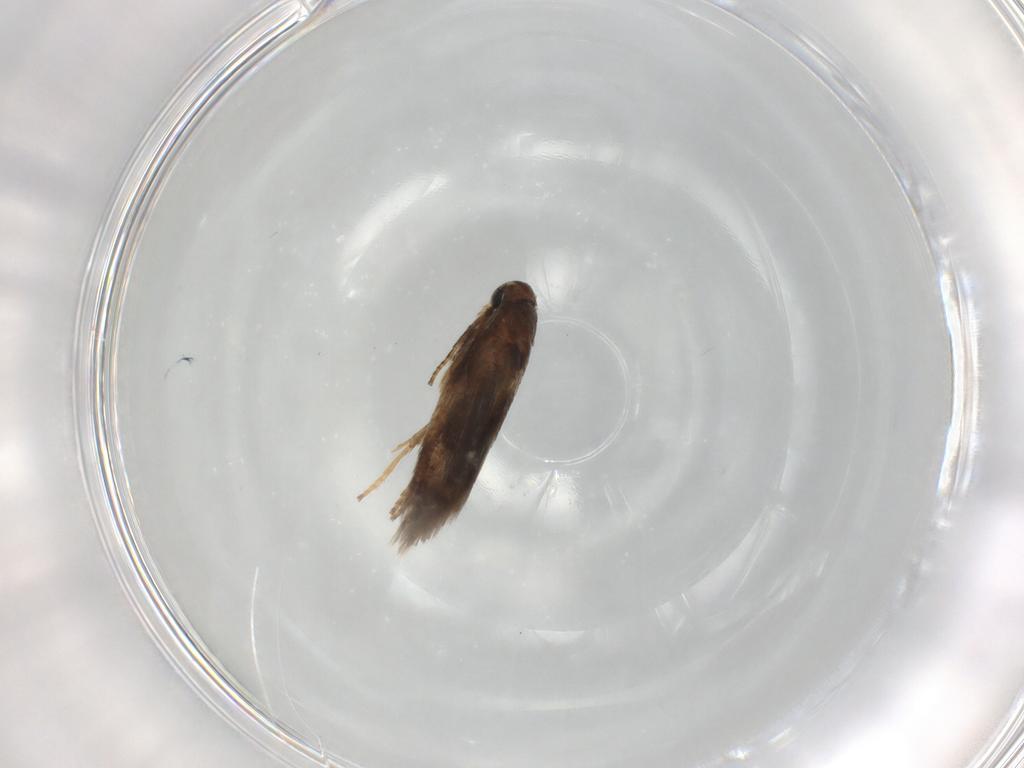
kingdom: Animalia
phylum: Arthropoda
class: Insecta
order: Lepidoptera
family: Heliozelidae
